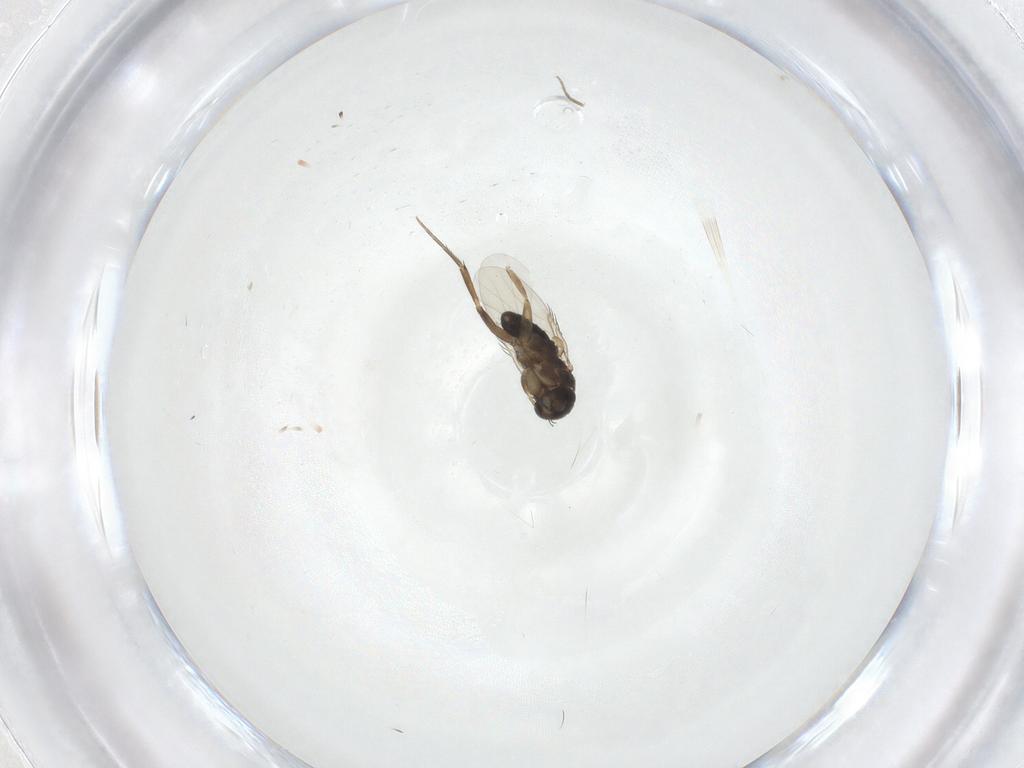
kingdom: Animalia
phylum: Arthropoda
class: Insecta
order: Diptera
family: Phoridae
